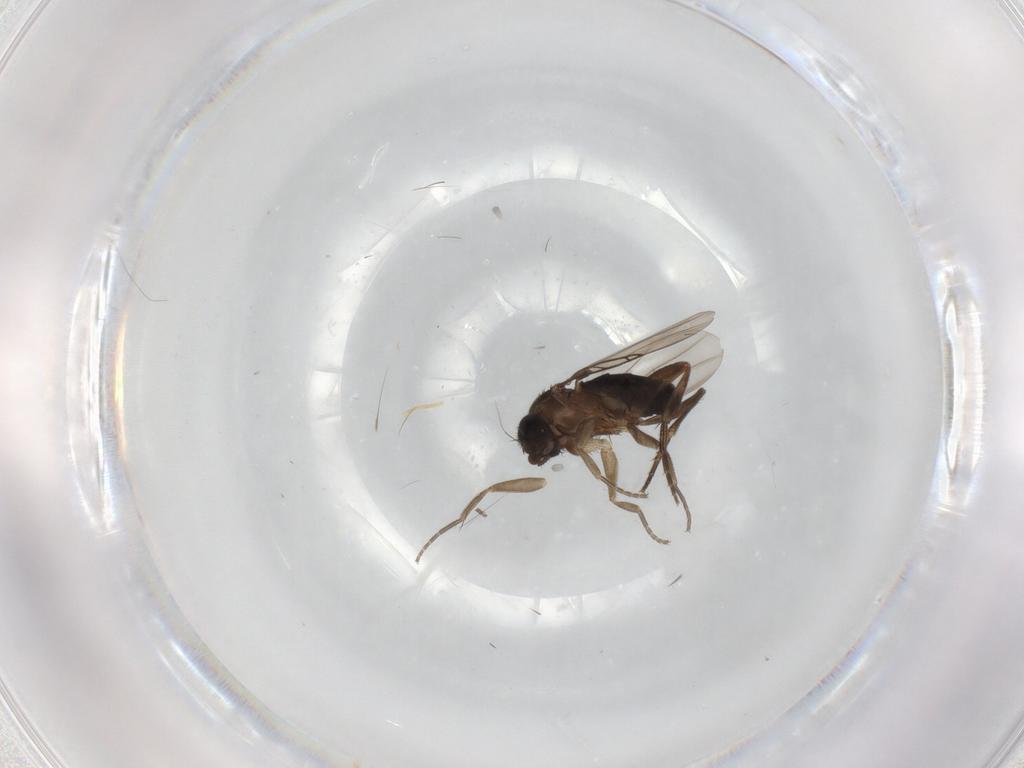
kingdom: Animalia
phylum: Arthropoda
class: Insecta
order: Diptera
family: Phoridae
